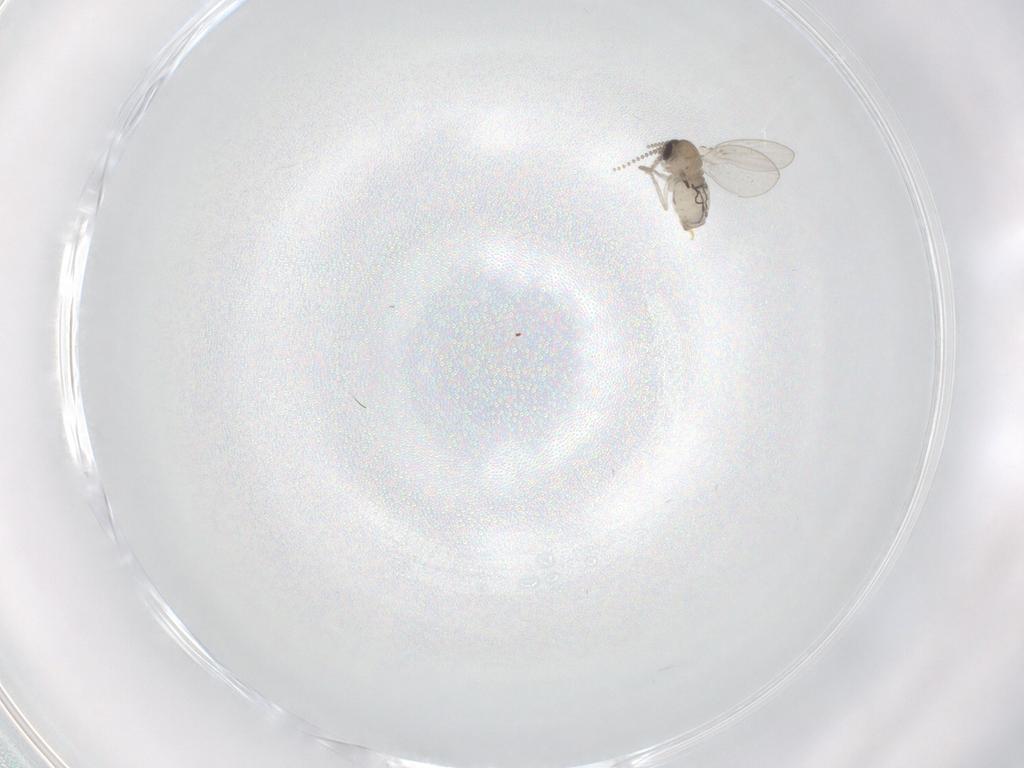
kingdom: Animalia
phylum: Arthropoda
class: Insecta
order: Diptera
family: Psychodidae
